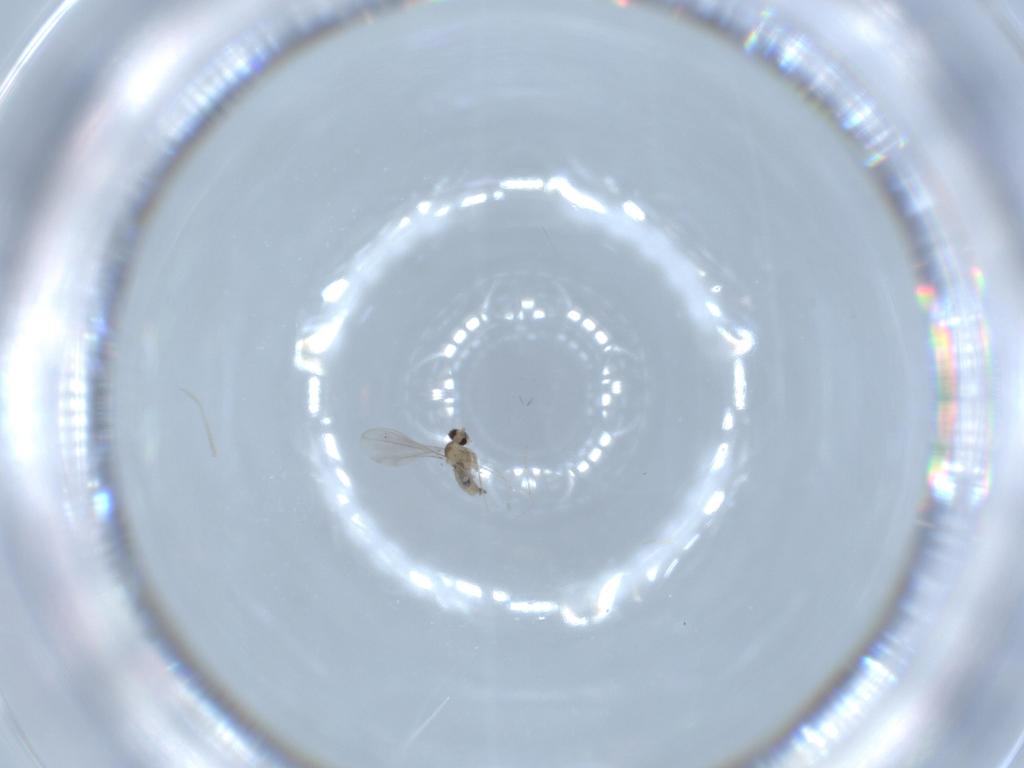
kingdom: Animalia
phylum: Arthropoda
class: Insecta
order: Diptera
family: Cecidomyiidae
